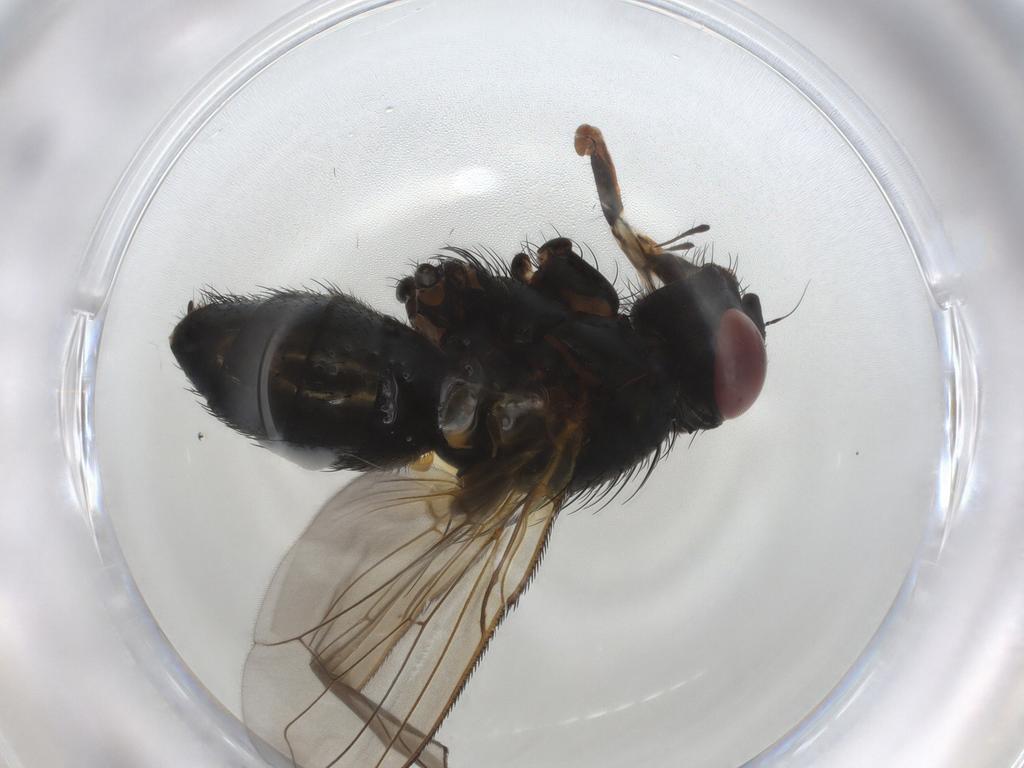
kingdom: Animalia
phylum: Arthropoda
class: Insecta
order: Diptera
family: Calliphoridae
